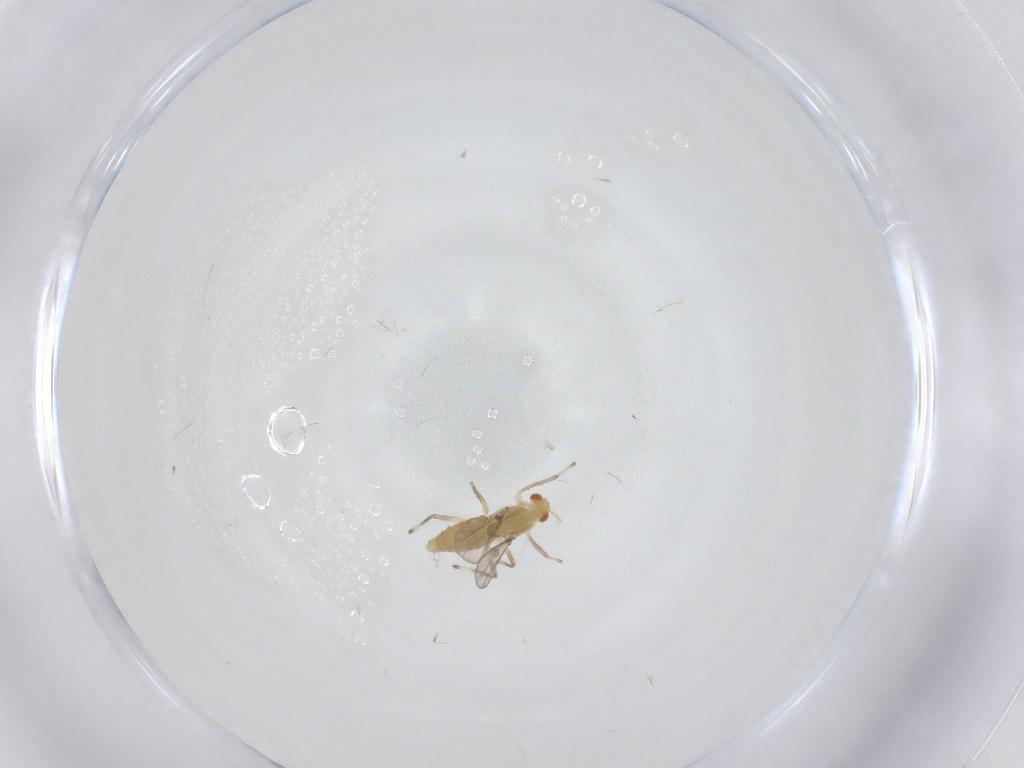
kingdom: Animalia
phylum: Arthropoda
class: Insecta
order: Diptera
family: Chironomidae
